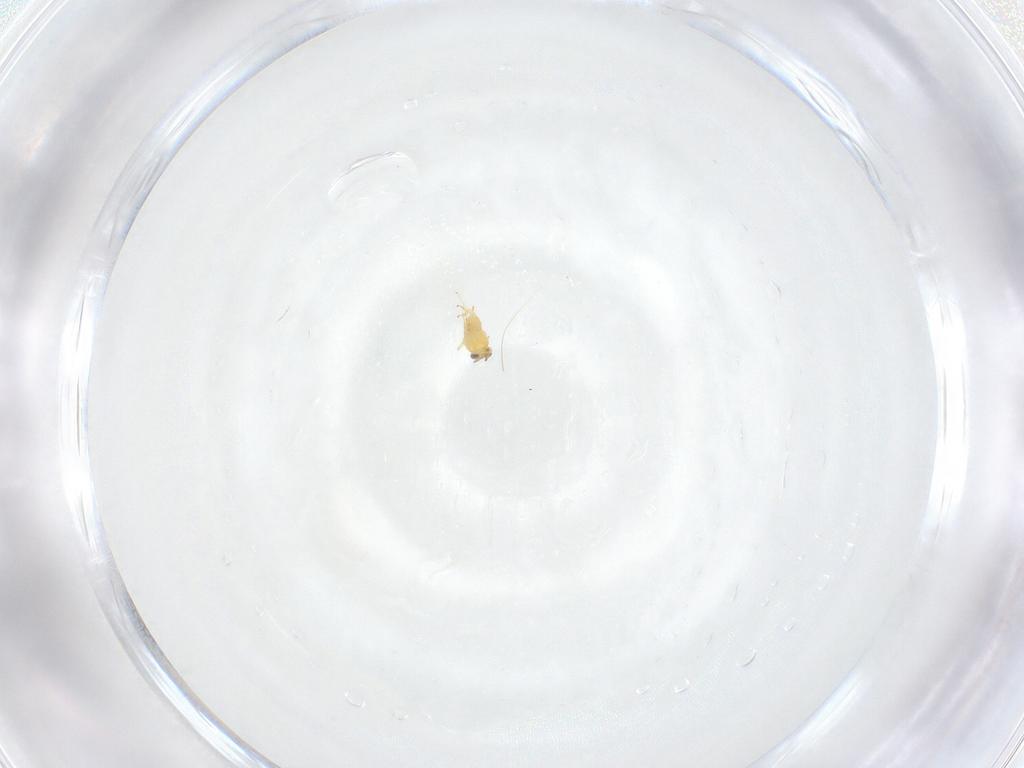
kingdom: Animalia
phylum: Arthropoda
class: Insecta
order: Hymenoptera
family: Aphelinidae
